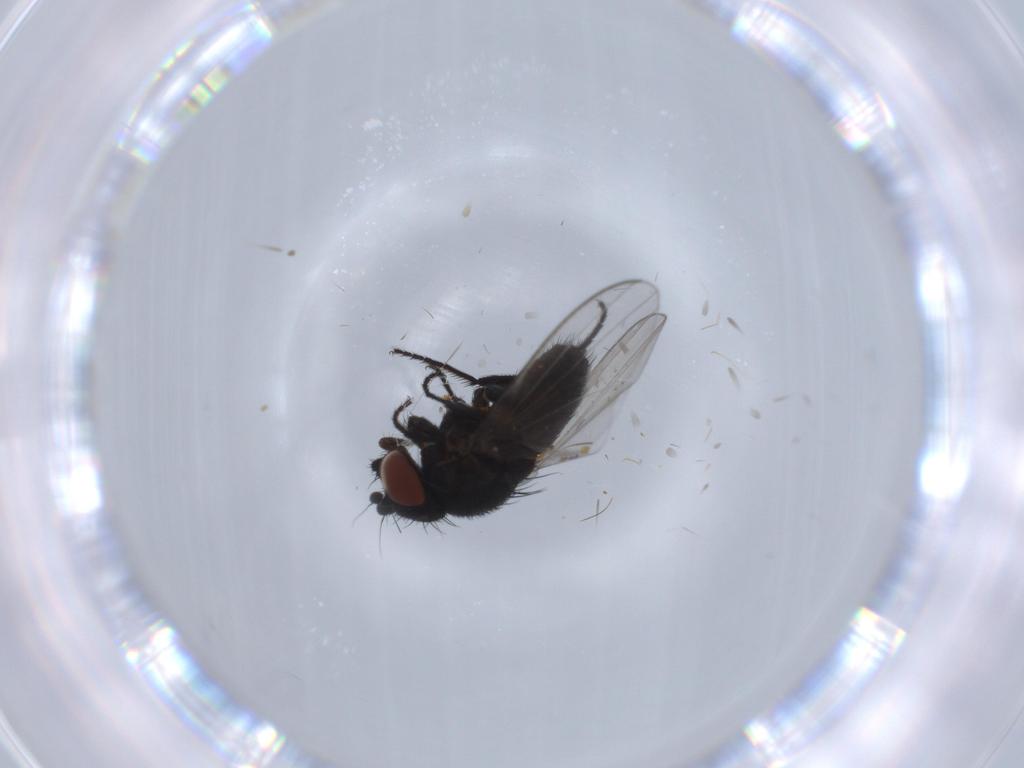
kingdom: Animalia
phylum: Arthropoda
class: Insecta
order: Diptera
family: Milichiidae
